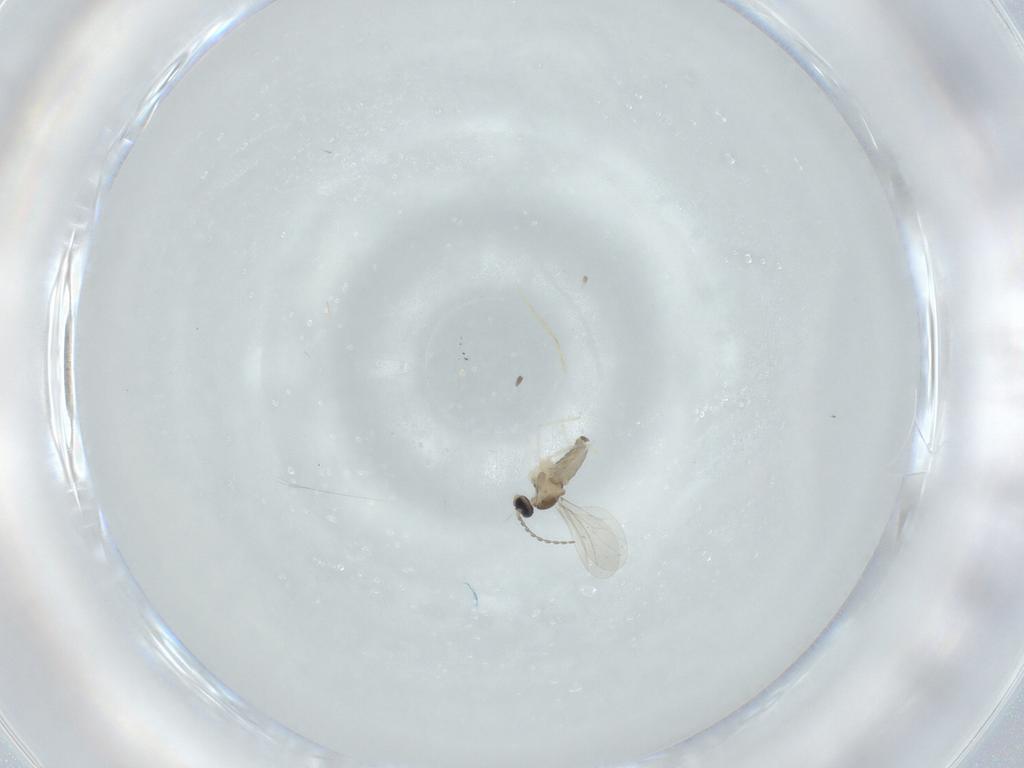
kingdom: Animalia
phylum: Arthropoda
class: Insecta
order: Diptera
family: Cecidomyiidae
